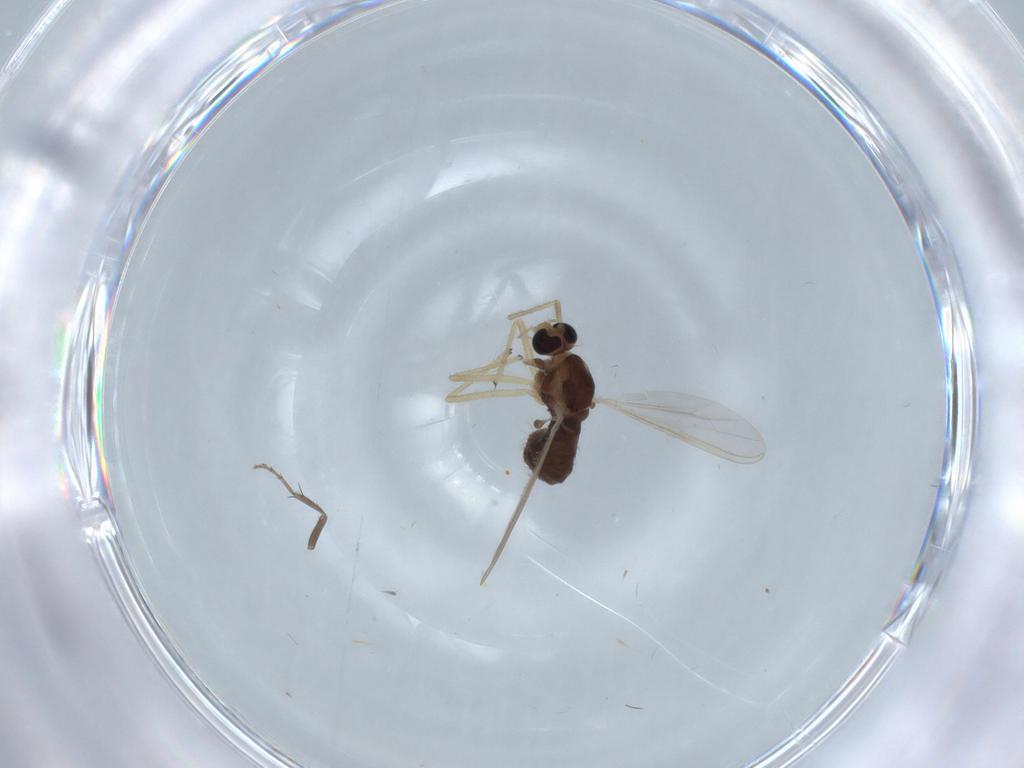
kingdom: Animalia
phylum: Arthropoda
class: Insecta
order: Diptera
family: Chironomidae
